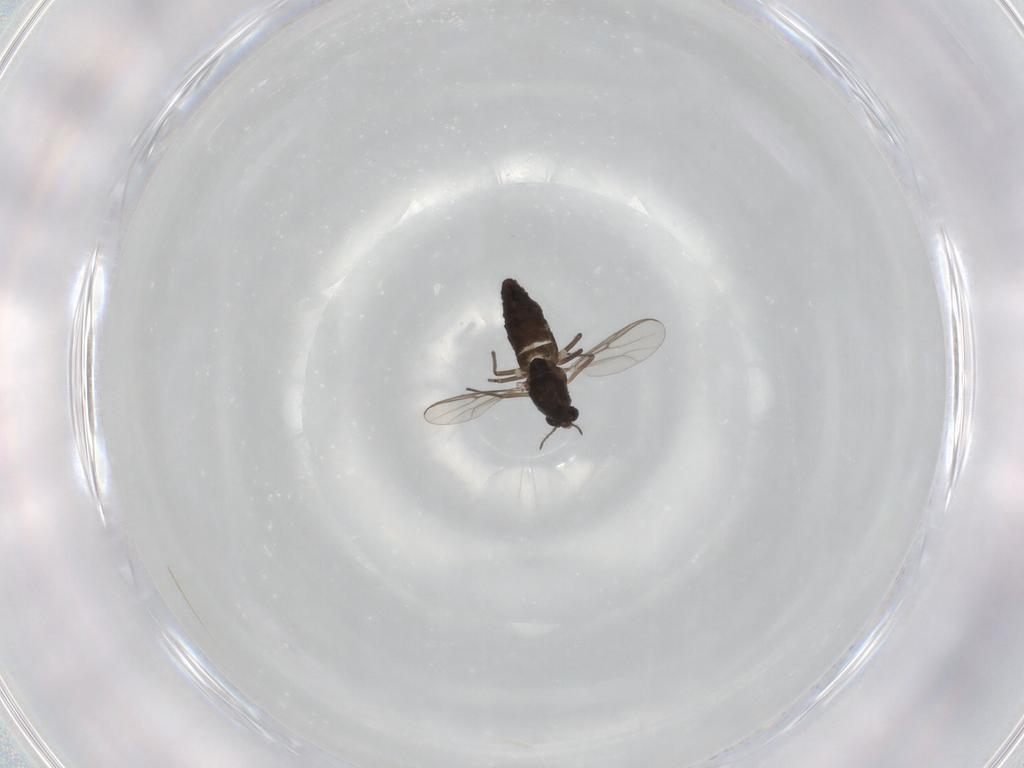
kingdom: Animalia
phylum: Arthropoda
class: Insecta
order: Diptera
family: Chironomidae
